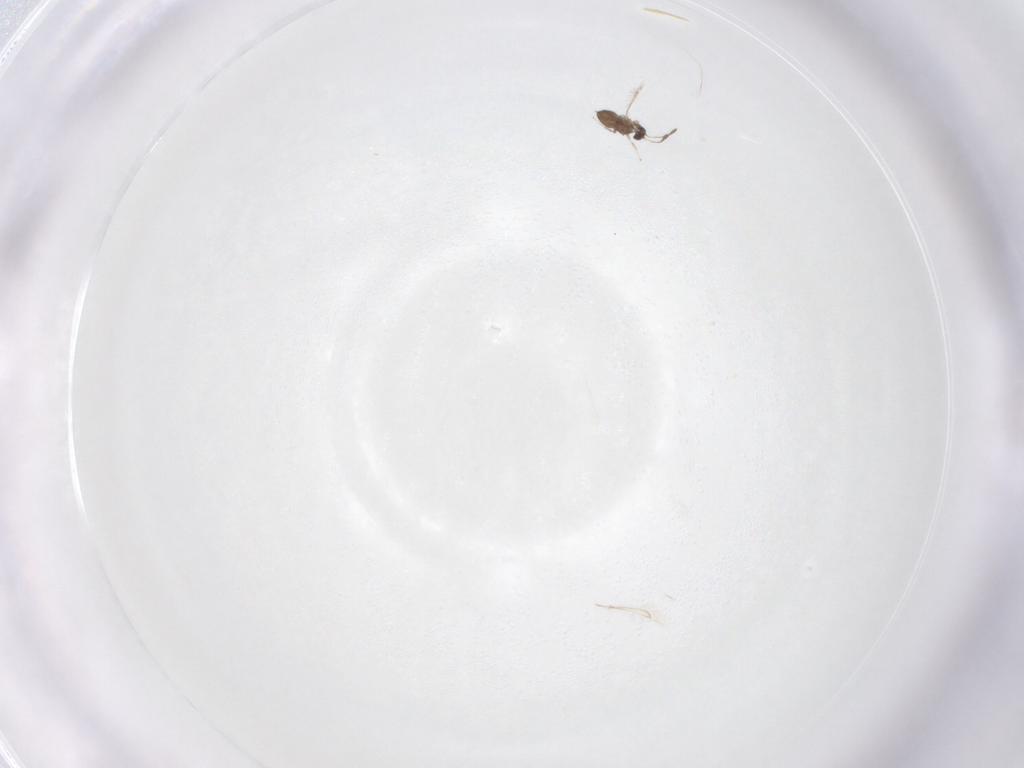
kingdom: Animalia
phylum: Arthropoda
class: Insecta
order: Hymenoptera
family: Mymaridae
